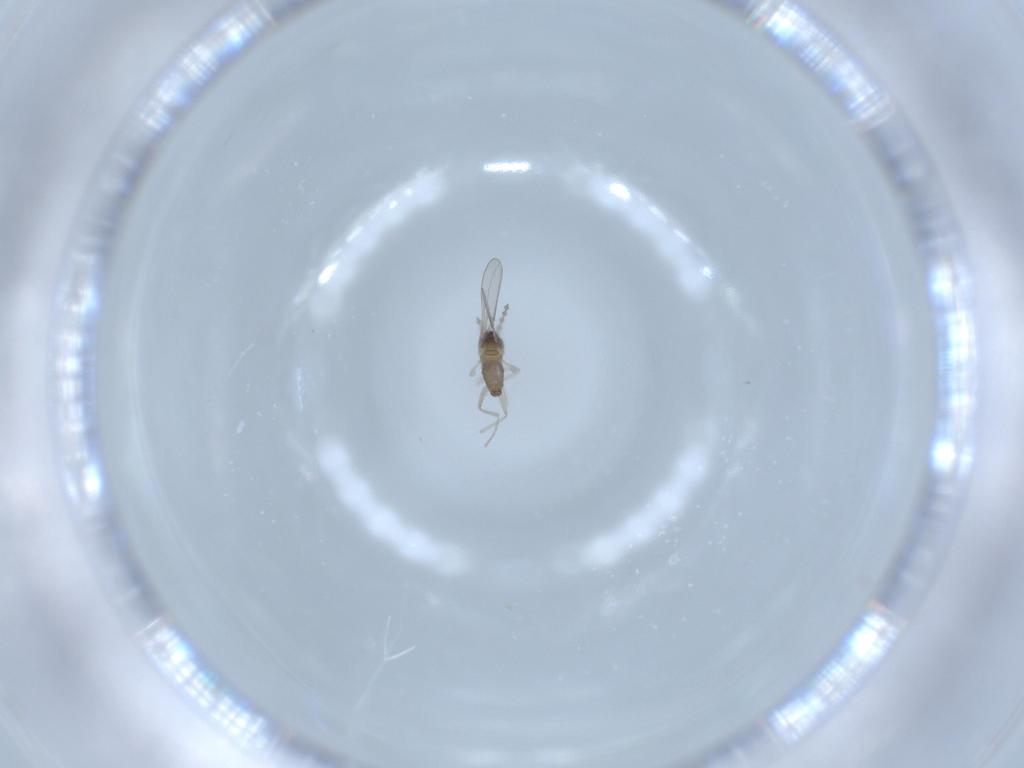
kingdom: Animalia
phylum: Arthropoda
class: Insecta
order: Diptera
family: Cecidomyiidae
